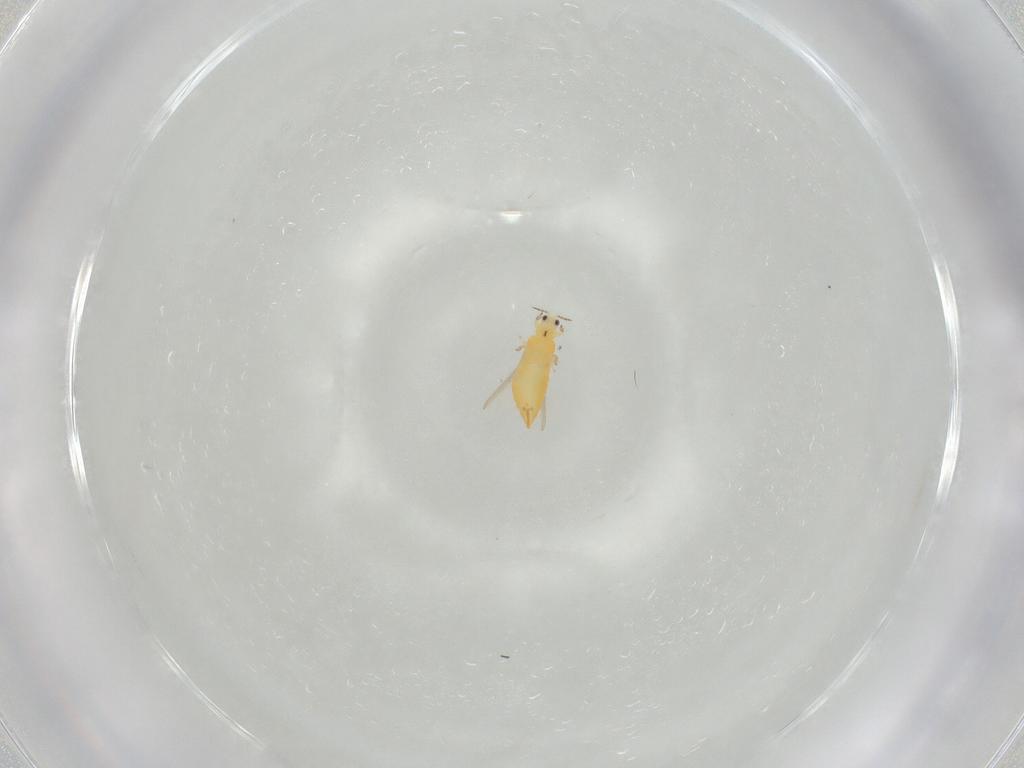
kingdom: Animalia
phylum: Arthropoda
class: Insecta
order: Thysanoptera
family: Thripidae
